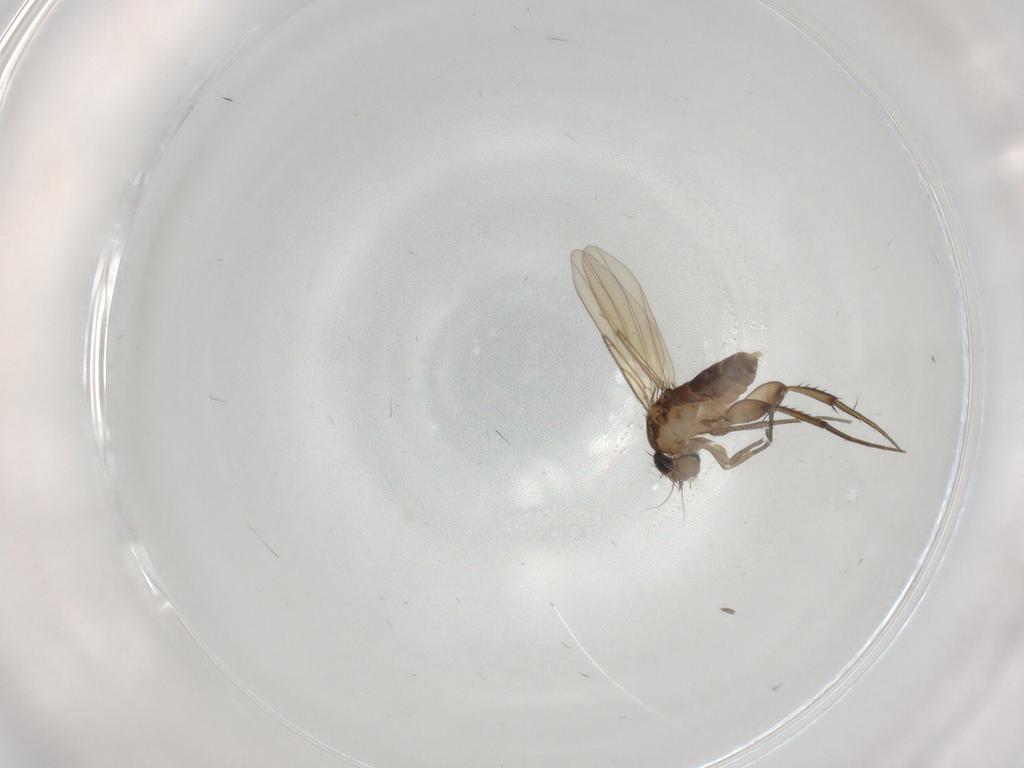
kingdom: Animalia
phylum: Arthropoda
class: Insecta
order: Diptera
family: Phoridae
